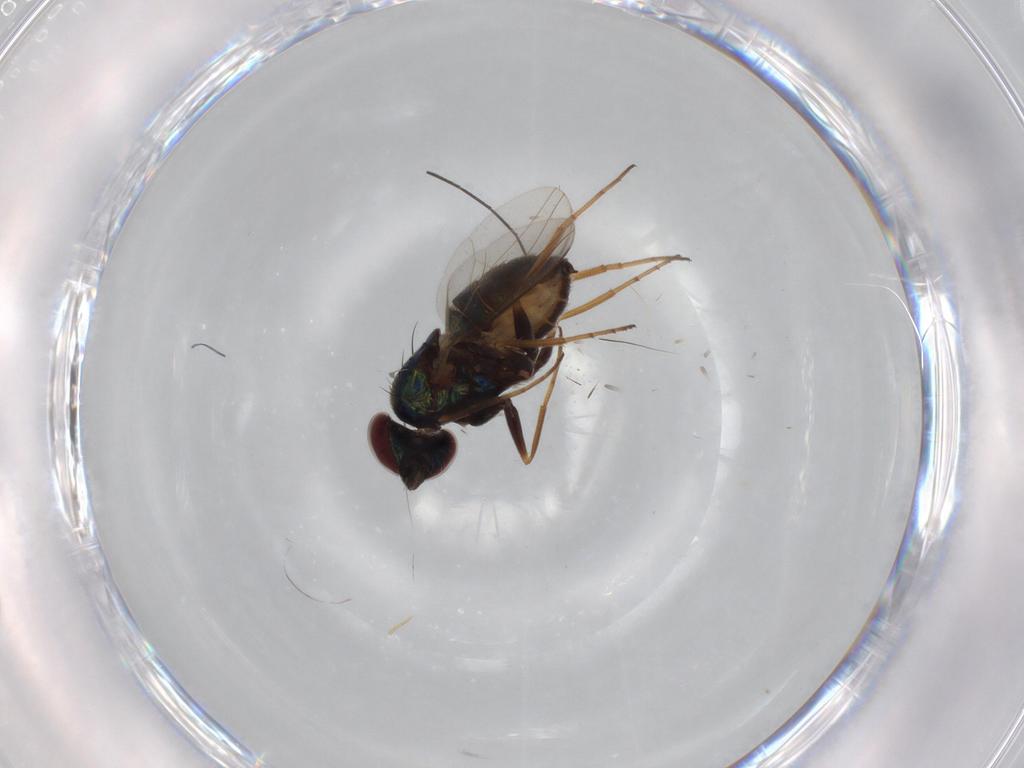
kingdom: Animalia
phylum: Arthropoda
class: Insecta
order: Diptera
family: Dolichopodidae
